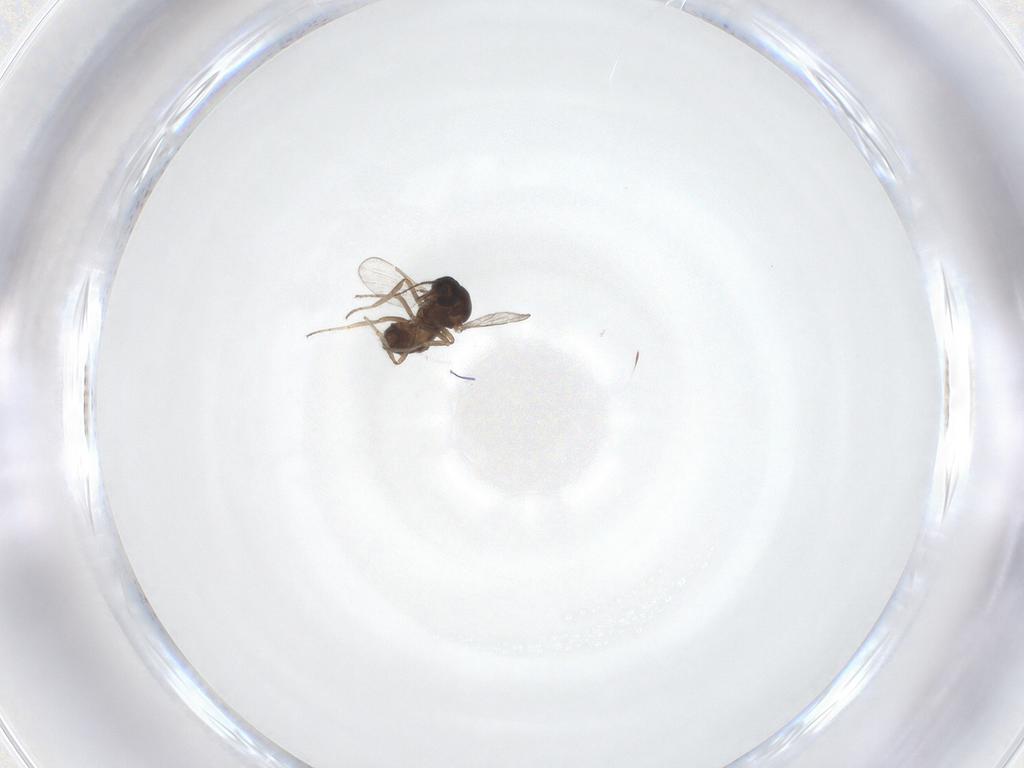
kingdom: Animalia
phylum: Arthropoda
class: Insecta
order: Diptera
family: Ceratopogonidae
